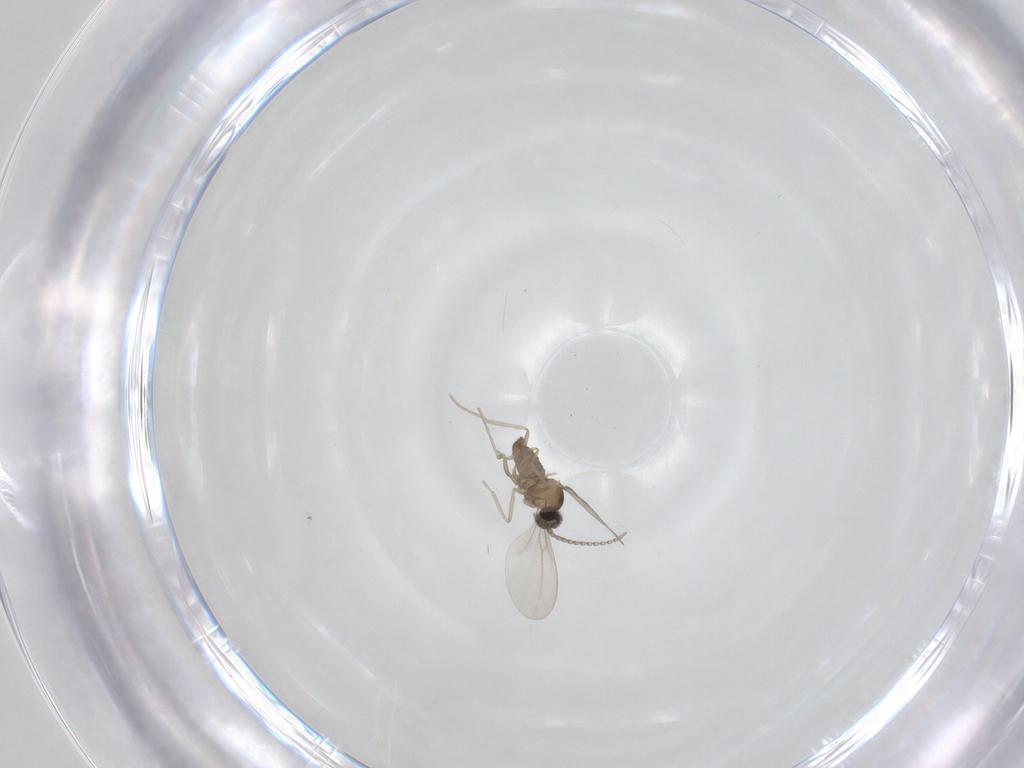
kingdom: Animalia
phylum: Arthropoda
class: Insecta
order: Diptera
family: Cecidomyiidae
